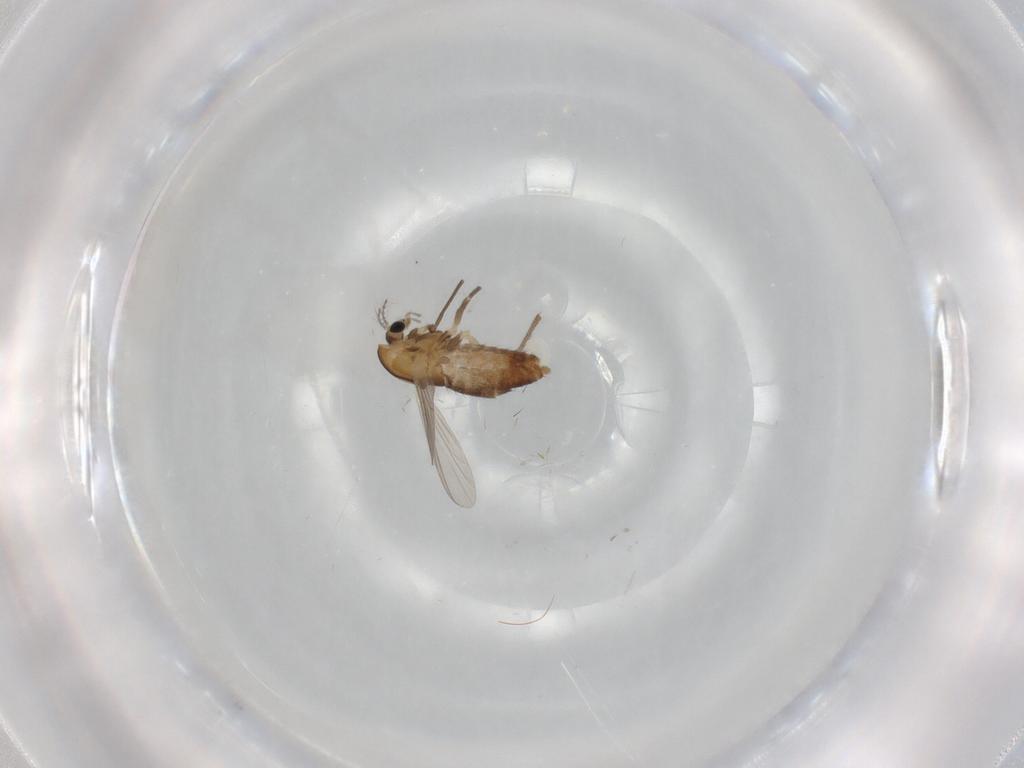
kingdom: Animalia
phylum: Arthropoda
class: Insecta
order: Diptera
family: Chironomidae
